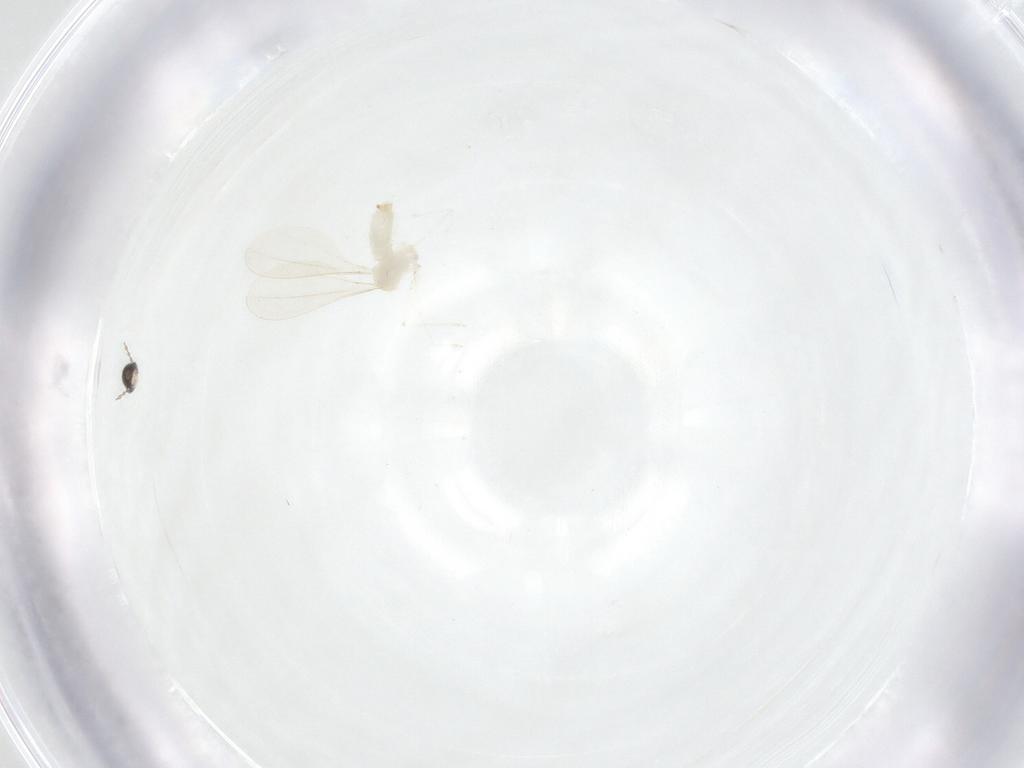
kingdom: Animalia
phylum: Arthropoda
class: Insecta
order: Diptera
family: Cecidomyiidae
